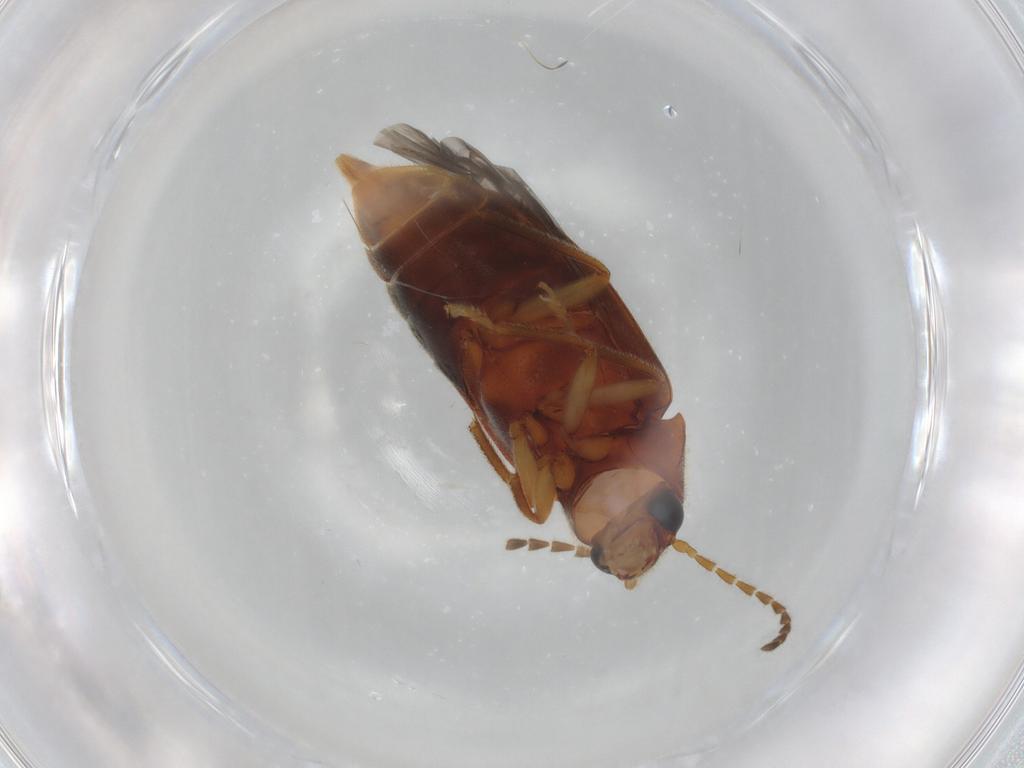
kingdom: Animalia
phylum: Arthropoda
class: Insecta
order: Coleoptera
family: Ptilodactylidae
